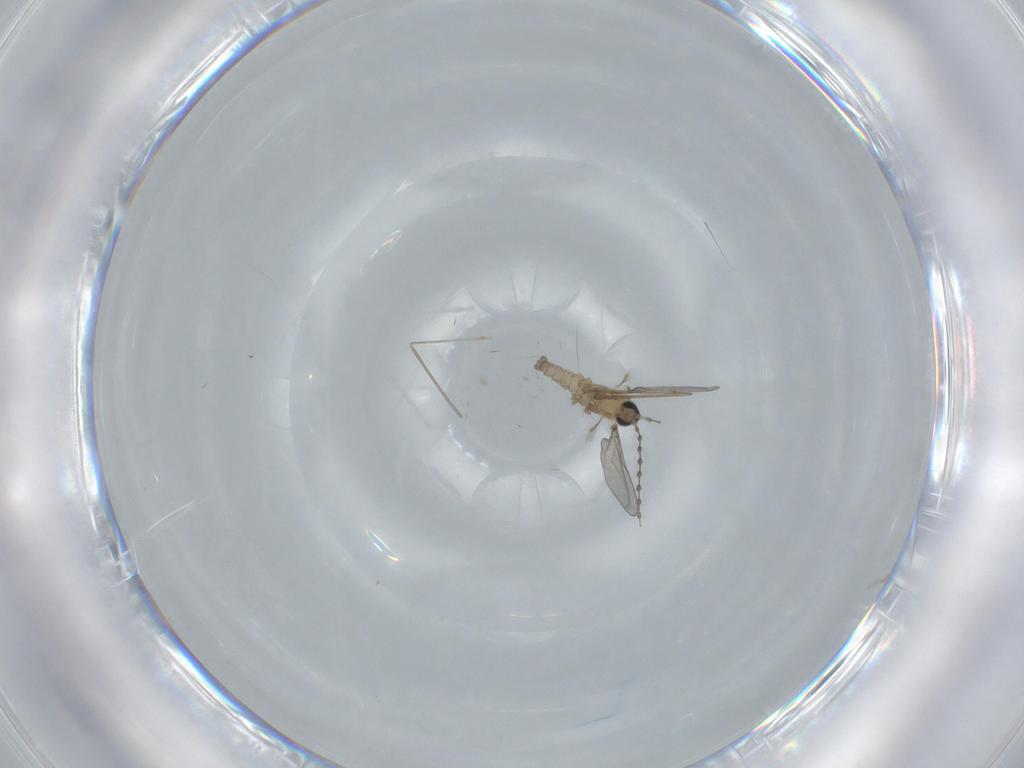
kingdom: Animalia
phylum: Arthropoda
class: Insecta
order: Diptera
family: Cecidomyiidae
